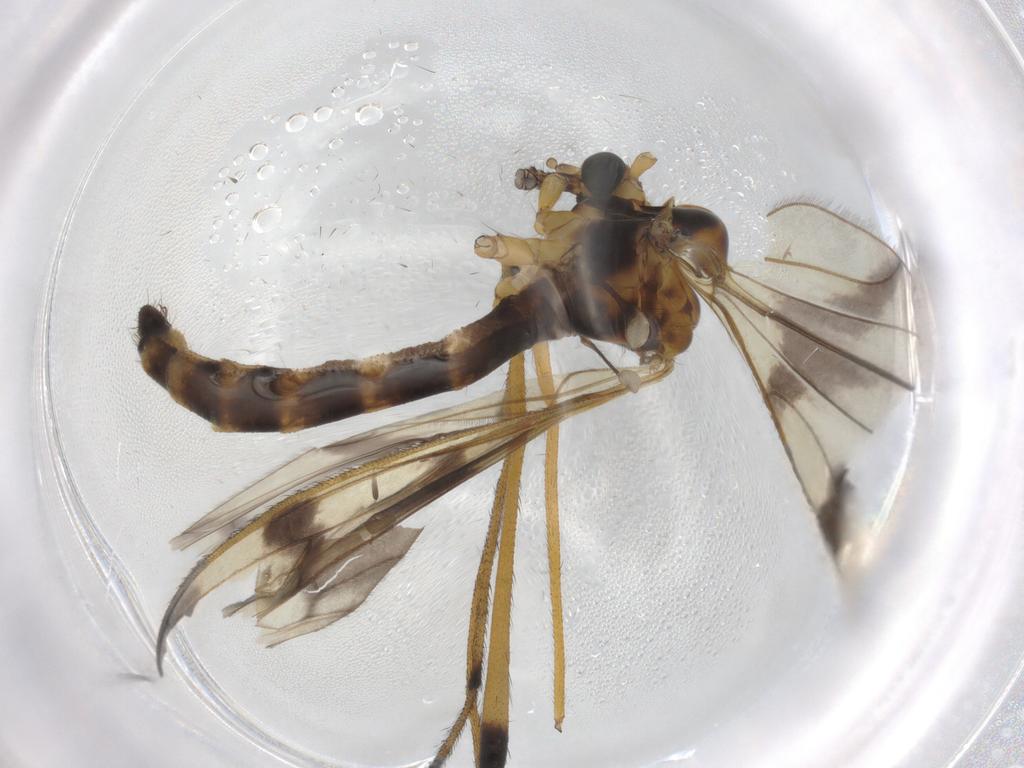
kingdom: Animalia
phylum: Arthropoda
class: Insecta
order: Diptera
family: Limoniidae
